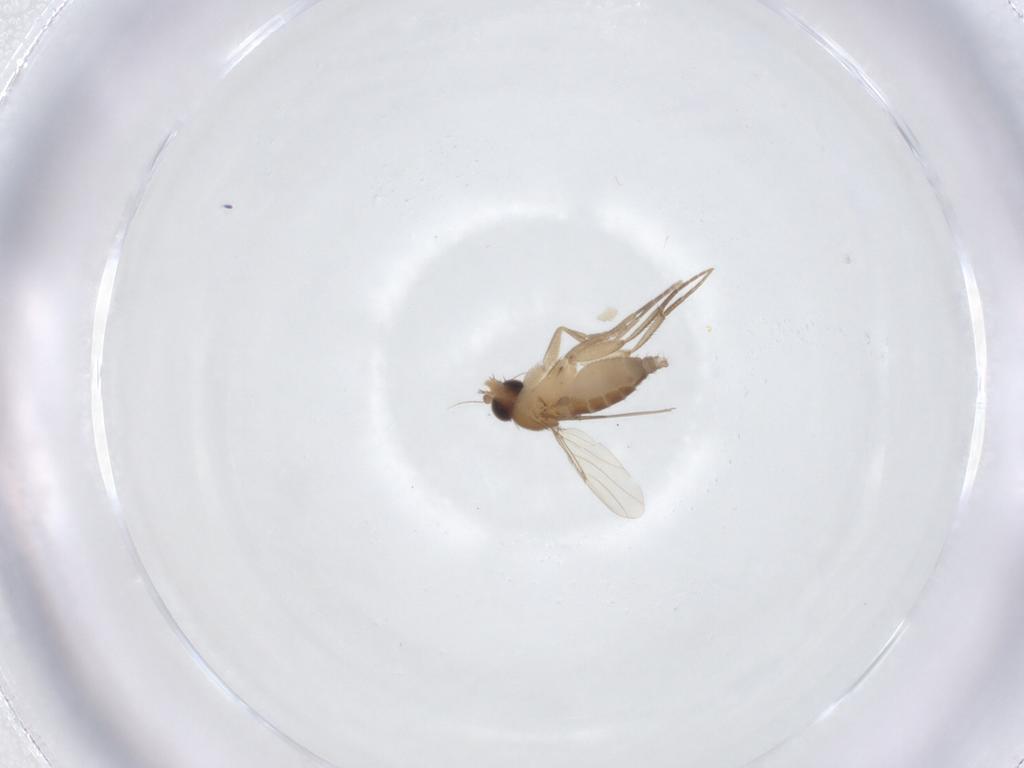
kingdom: Animalia
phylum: Arthropoda
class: Insecta
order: Diptera
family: Phoridae
